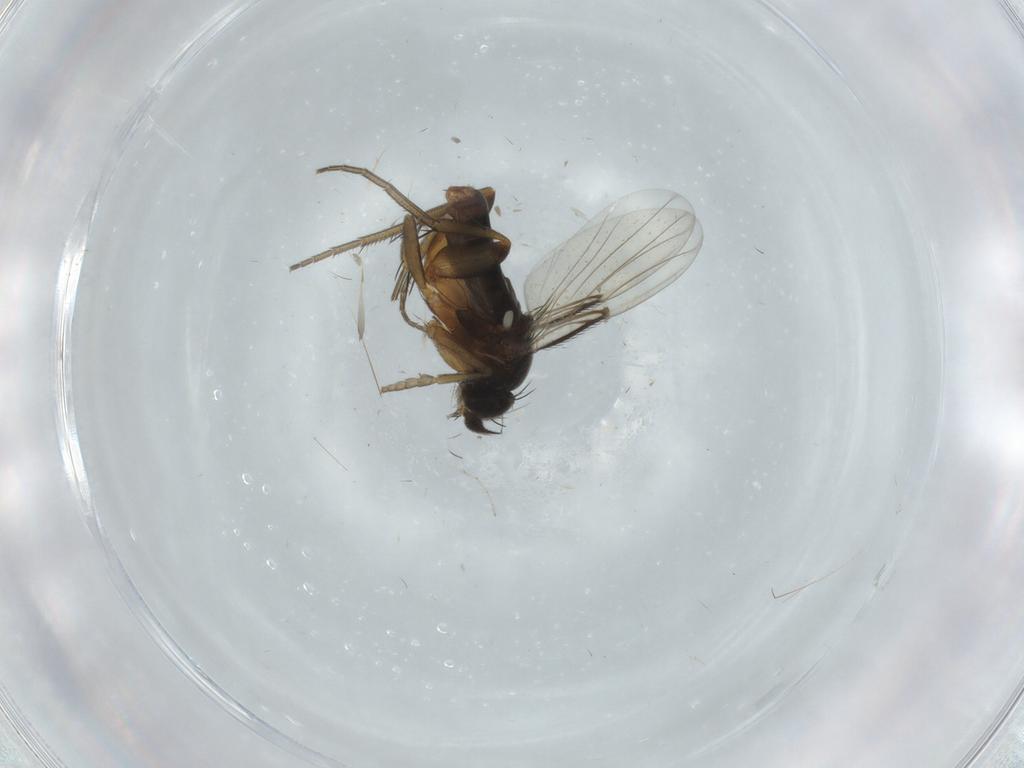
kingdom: Animalia
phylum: Arthropoda
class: Insecta
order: Diptera
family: Phoridae
